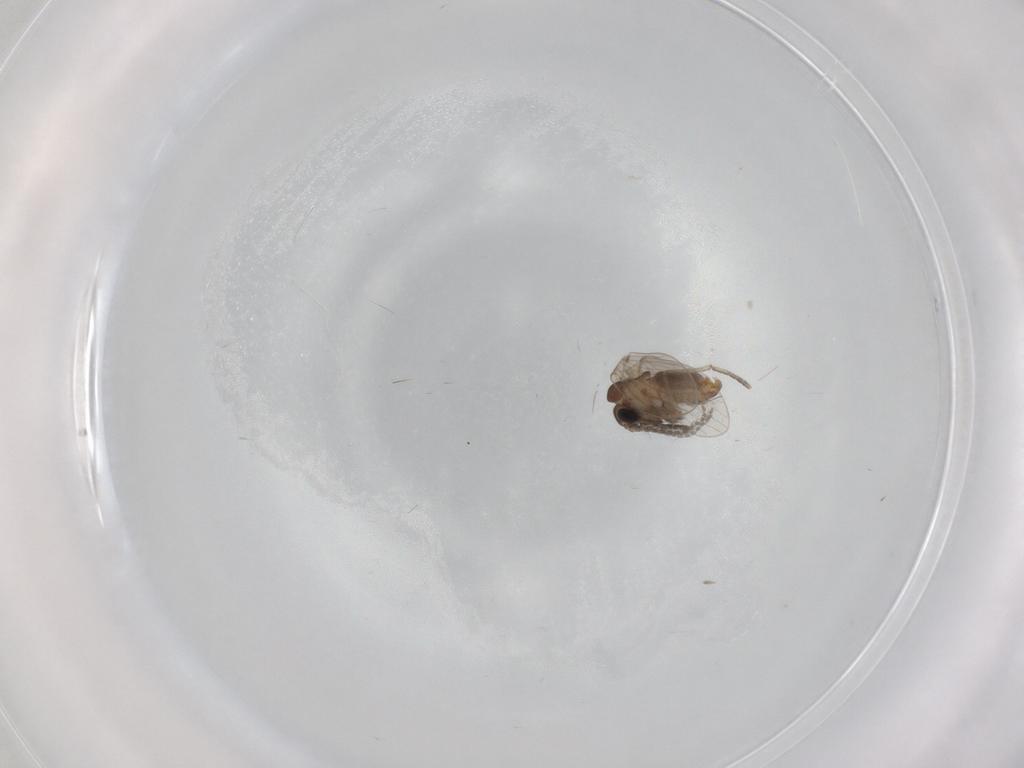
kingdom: Animalia
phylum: Arthropoda
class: Insecta
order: Diptera
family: Cecidomyiidae
